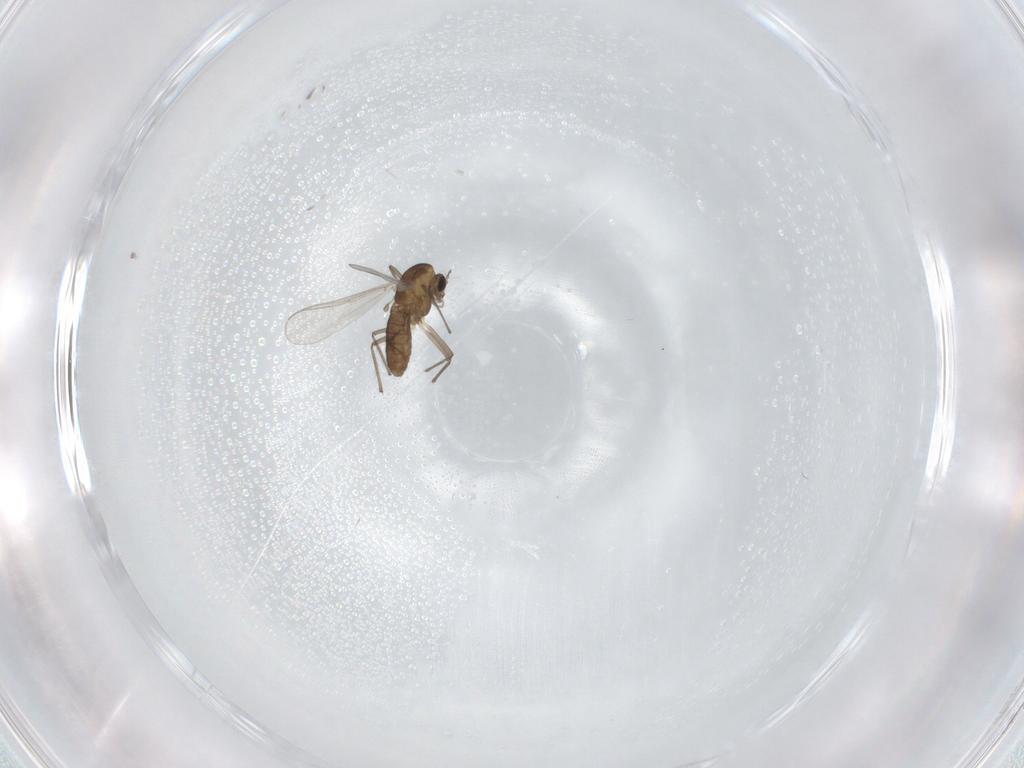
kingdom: Animalia
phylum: Arthropoda
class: Insecta
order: Diptera
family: Chironomidae
